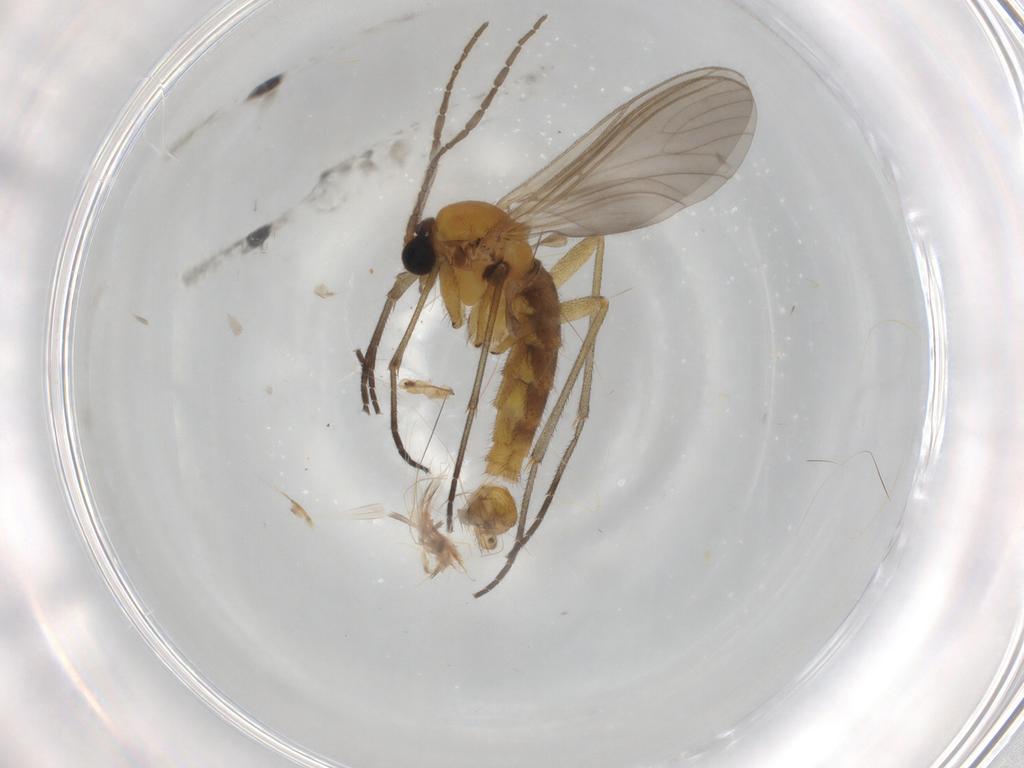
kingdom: Animalia
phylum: Arthropoda
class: Insecta
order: Diptera
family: Sciaridae
